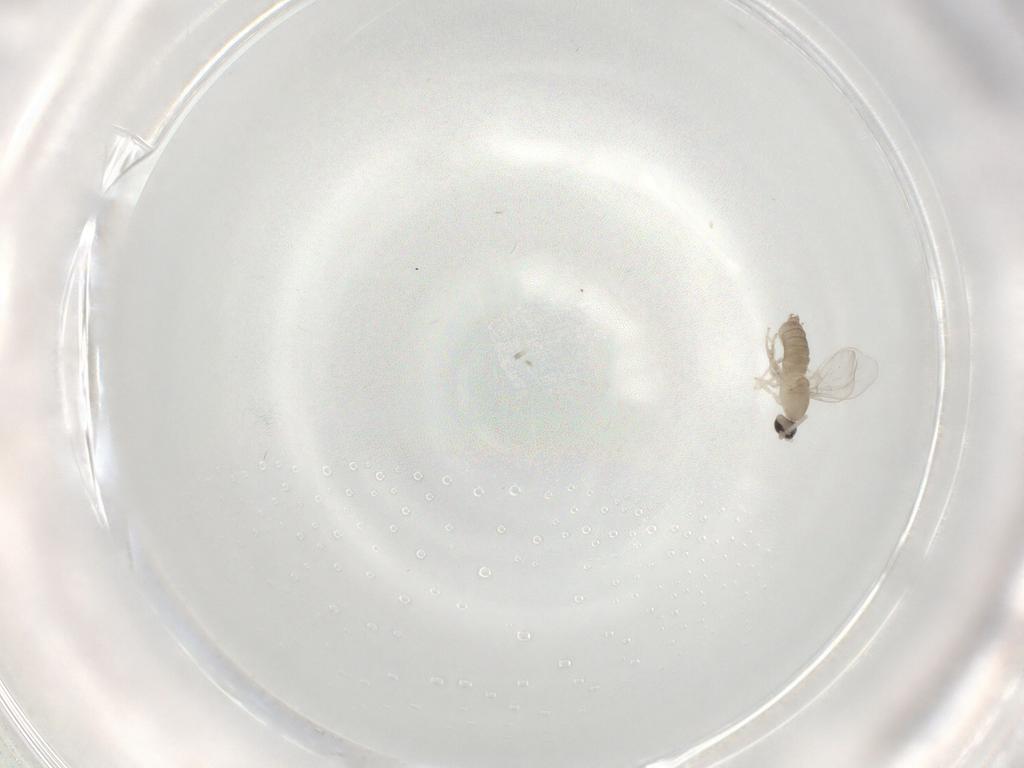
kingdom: Animalia
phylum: Arthropoda
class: Insecta
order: Diptera
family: Cecidomyiidae
